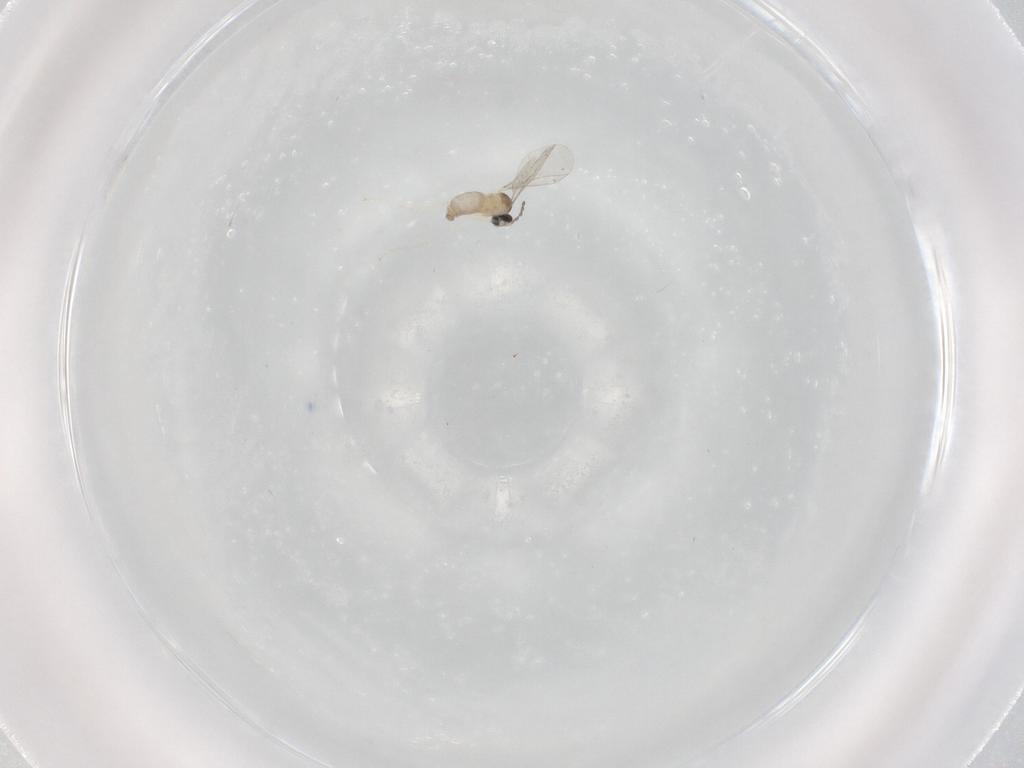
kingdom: Animalia
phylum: Arthropoda
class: Insecta
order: Diptera
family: Cecidomyiidae
